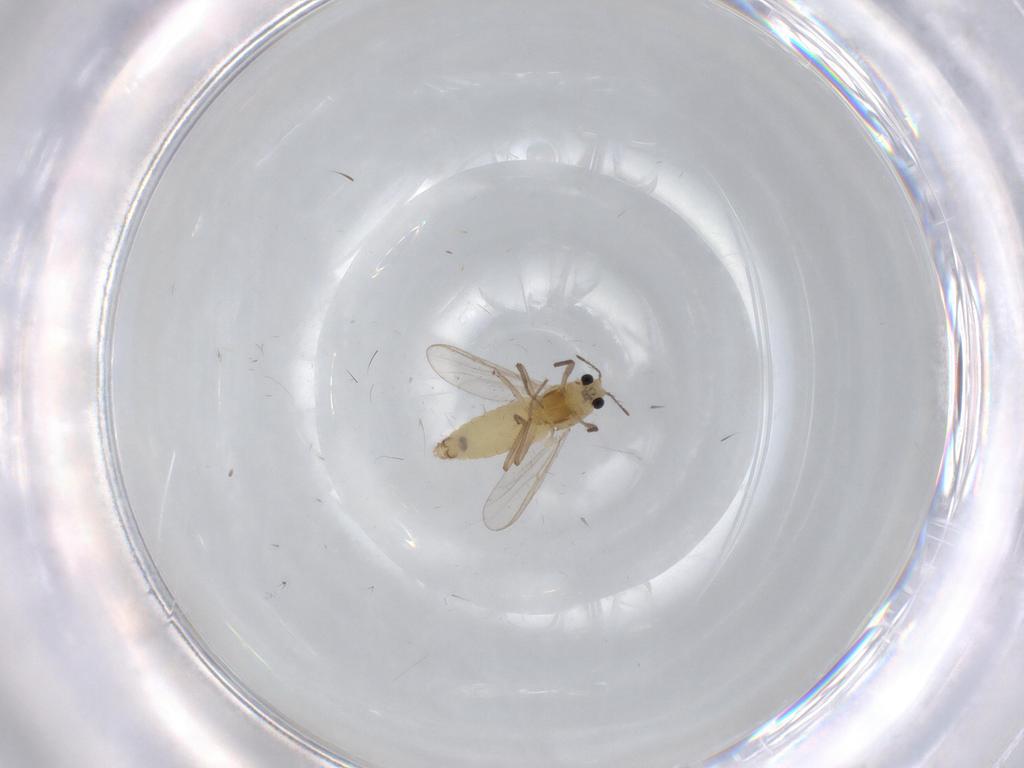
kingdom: Animalia
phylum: Arthropoda
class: Insecta
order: Diptera
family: Chironomidae
